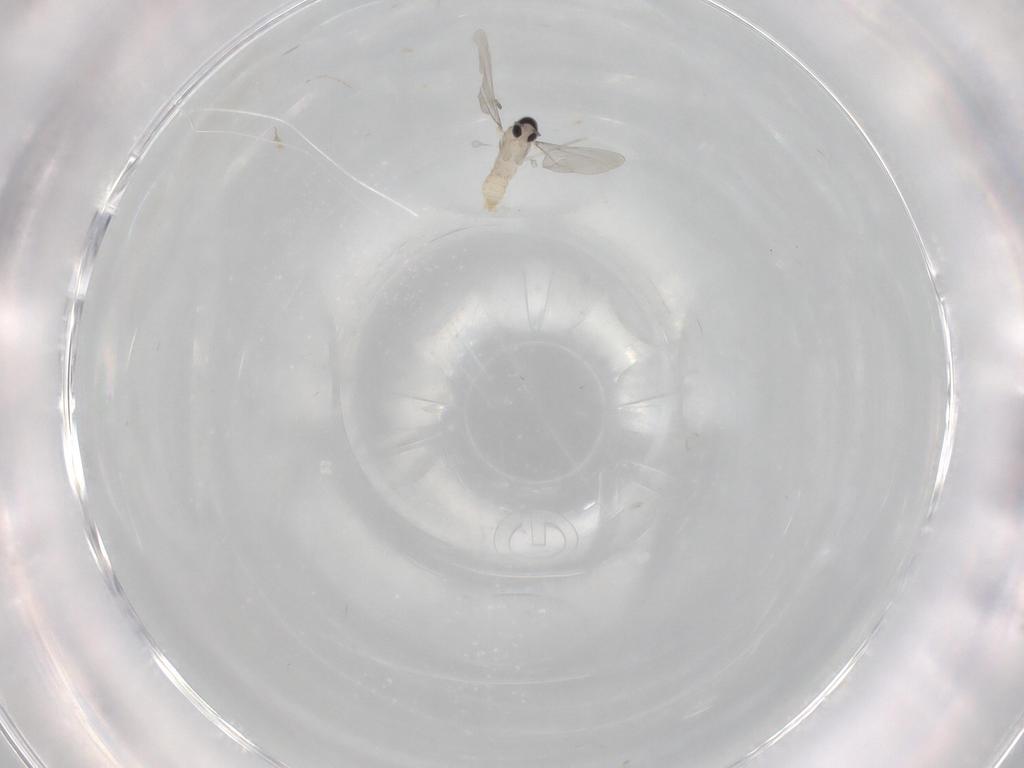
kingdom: Animalia
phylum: Arthropoda
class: Insecta
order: Diptera
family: Cecidomyiidae
